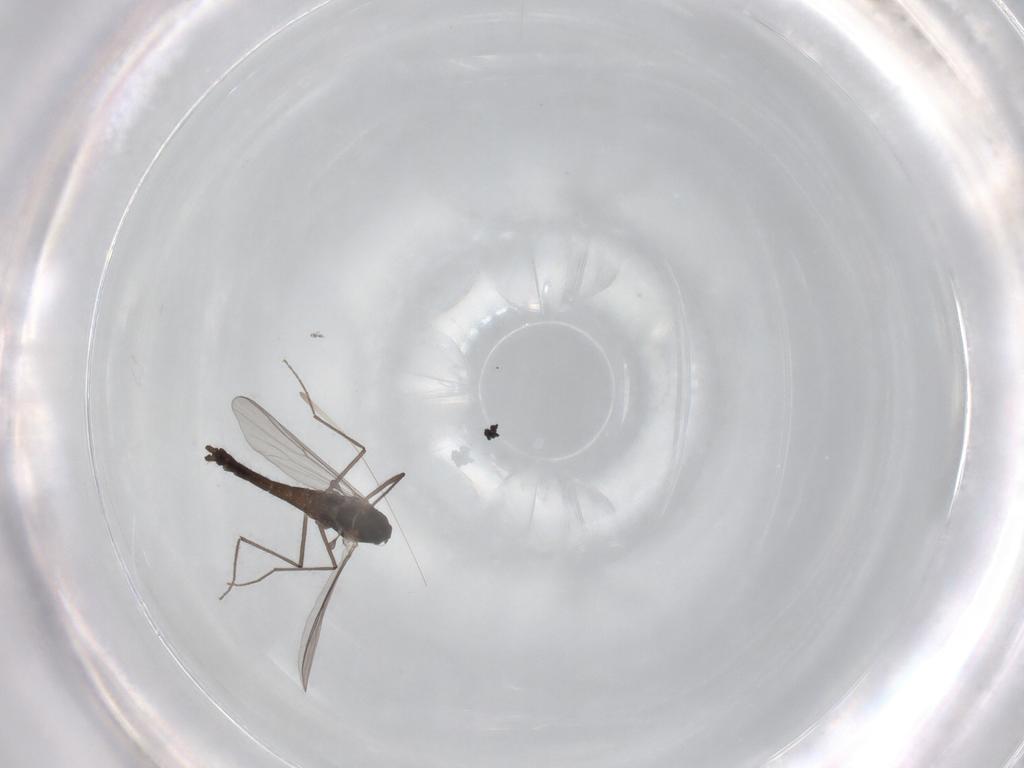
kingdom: Animalia
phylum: Arthropoda
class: Insecta
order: Diptera
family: Chironomidae
